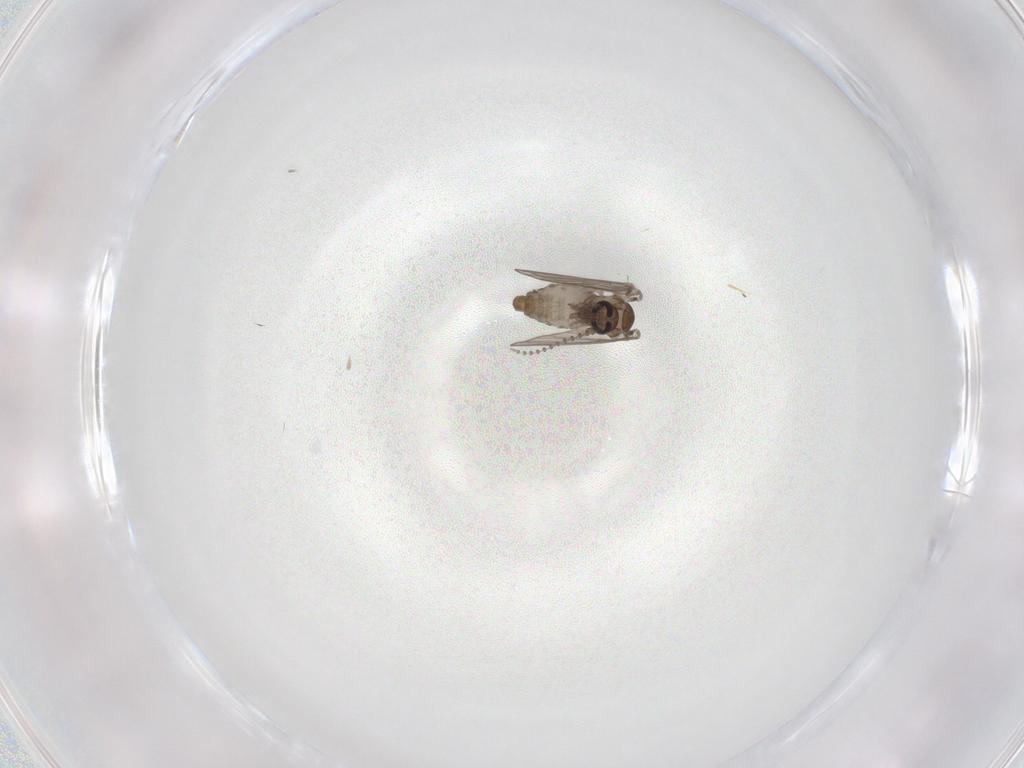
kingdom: Animalia
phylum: Arthropoda
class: Insecta
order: Diptera
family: Psychodidae
